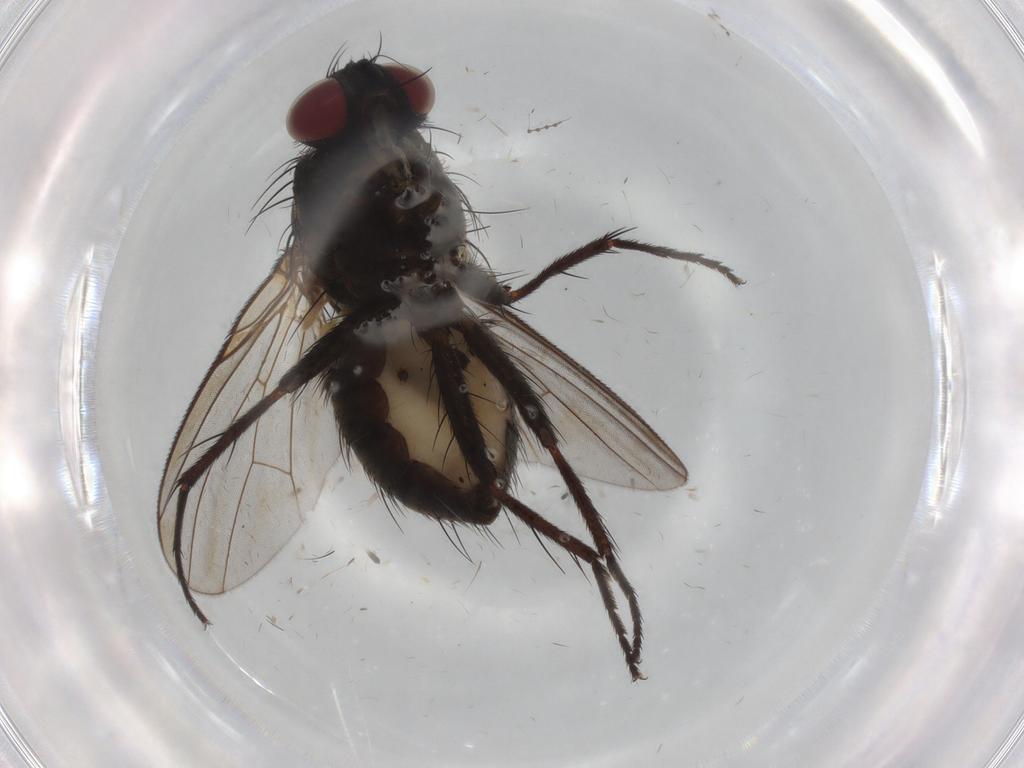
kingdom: Animalia
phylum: Arthropoda
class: Insecta
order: Diptera
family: Muscidae
